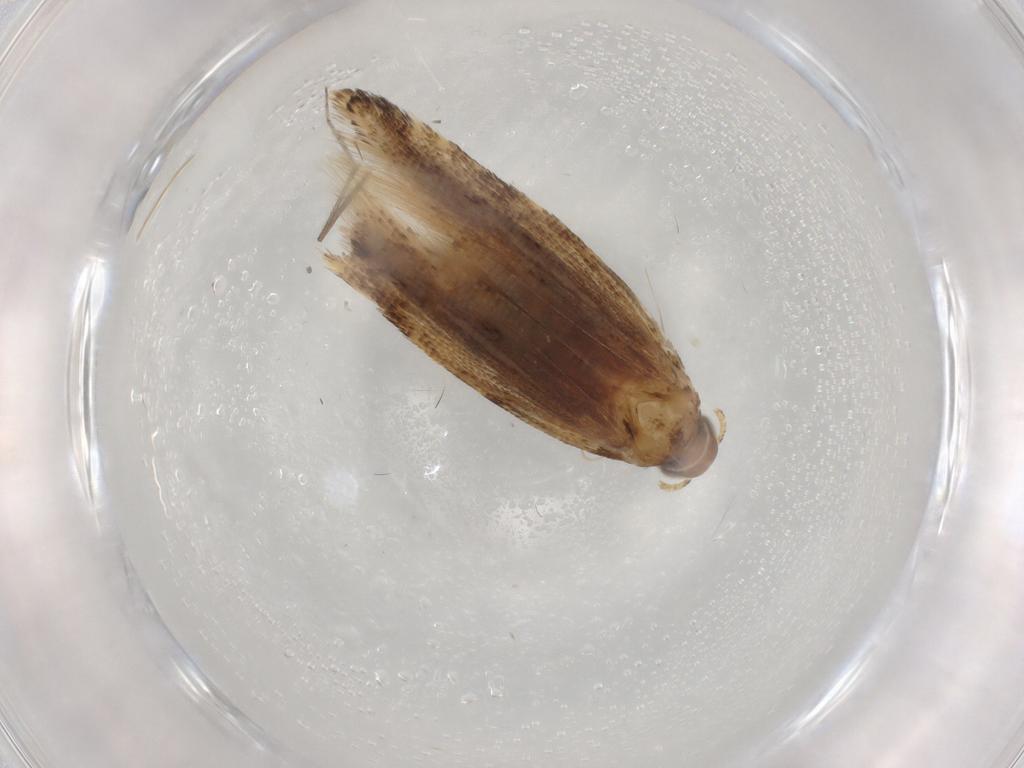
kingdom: Animalia
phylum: Arthropoda
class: Insecta
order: Lepidoptera
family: Gelechiidae
